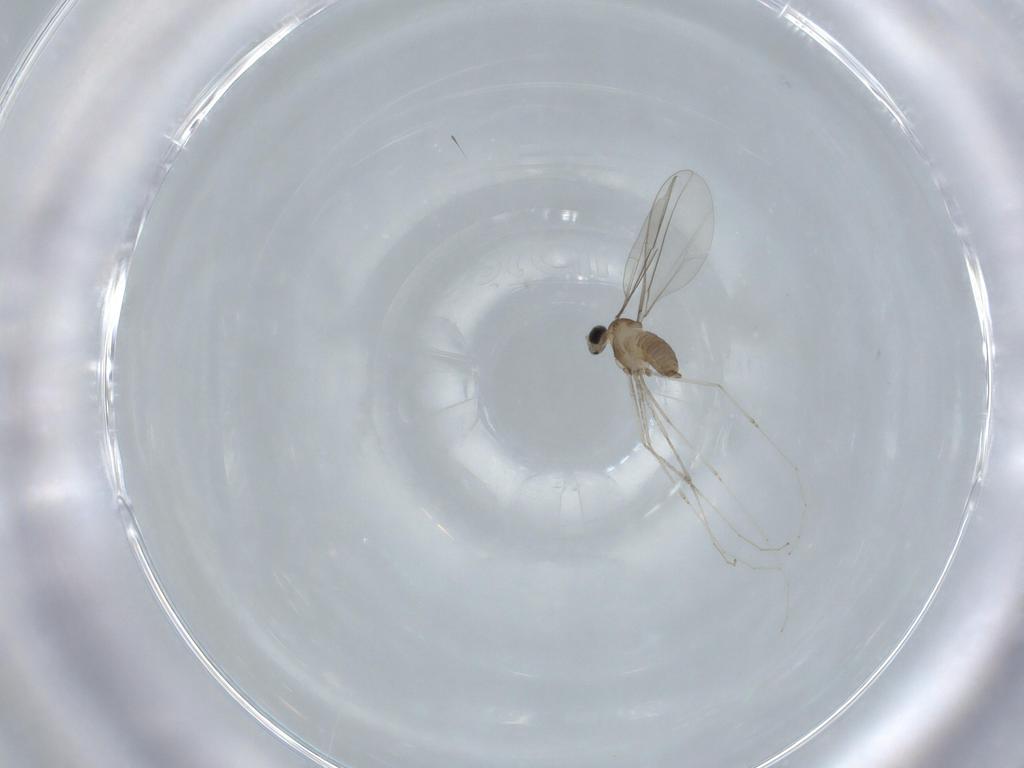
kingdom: Animalia
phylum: Arthropoda
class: Insecta
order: Diptera
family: Cecidomyiidae
